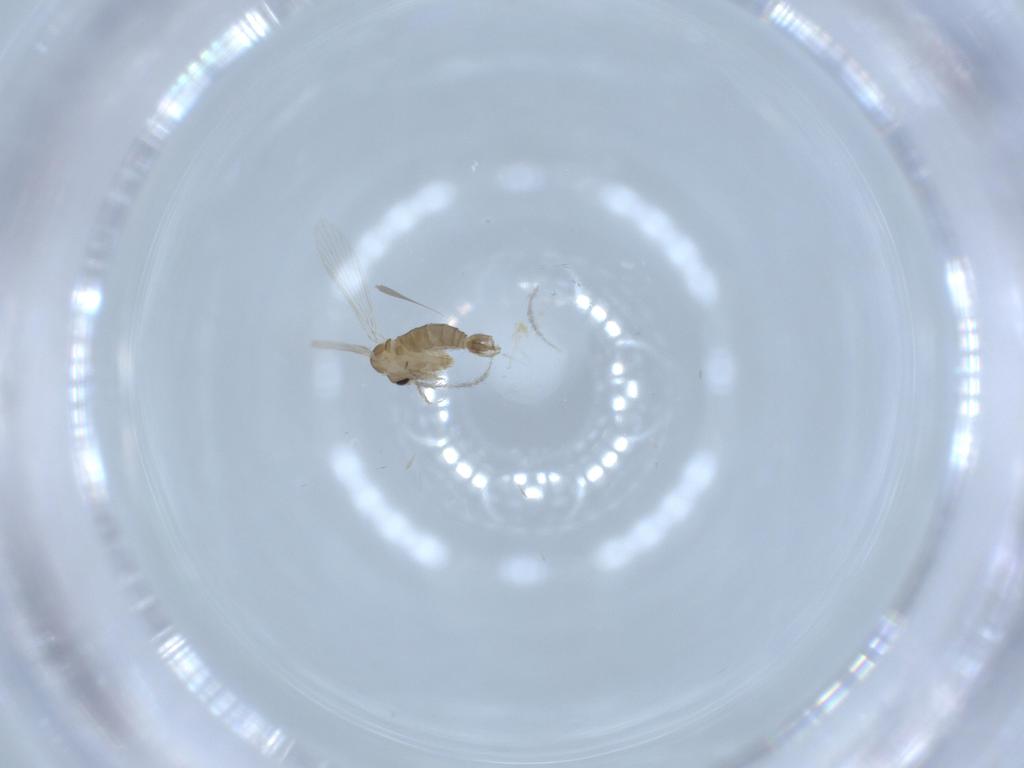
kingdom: Animalia
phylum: Arthropoda
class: Insecta
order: Diptera
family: Psychodidae
